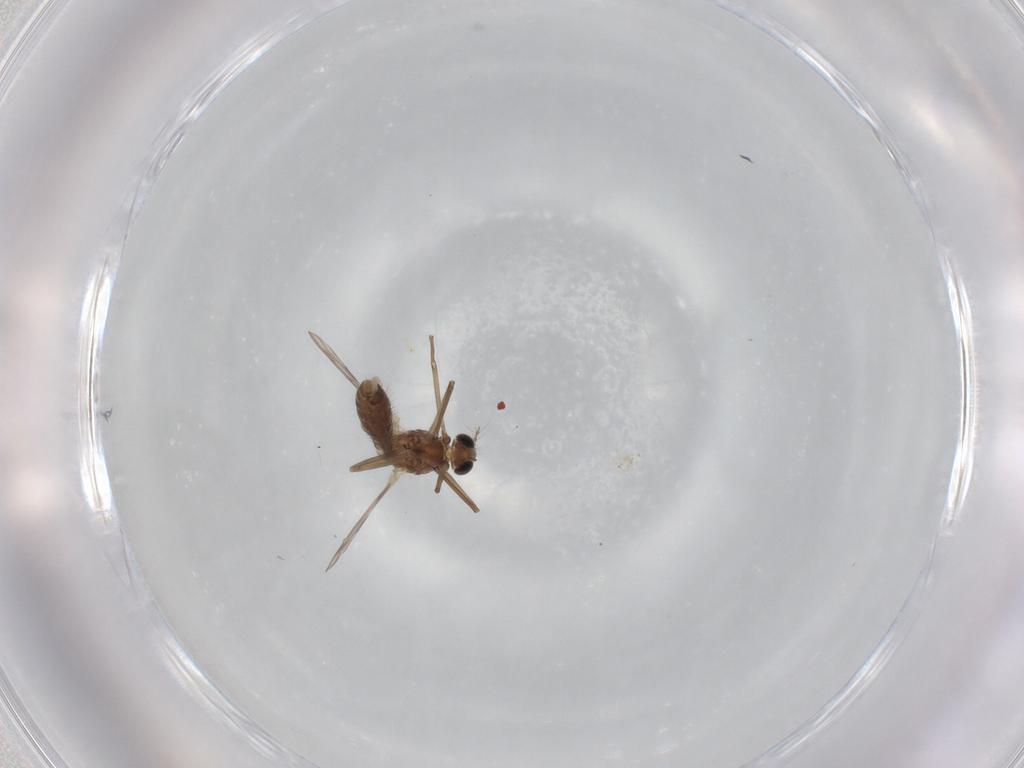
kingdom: Animalia
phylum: Arthropoda
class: Insecta
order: Diptera
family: Chironomidae
